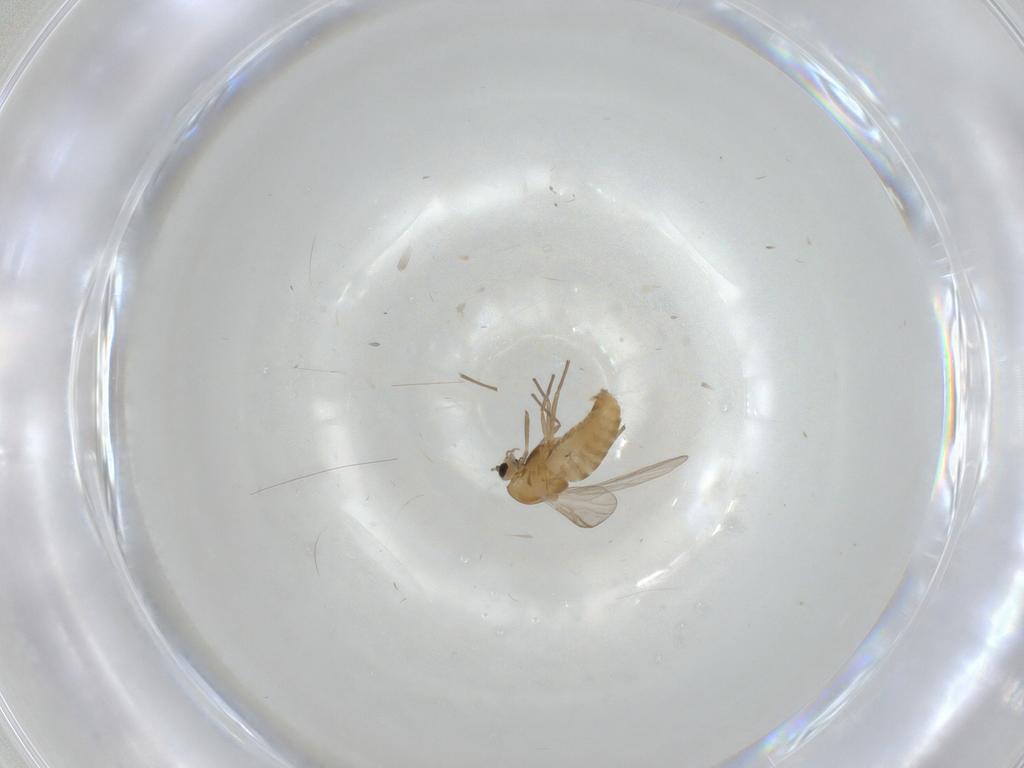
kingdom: Animalia
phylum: Arthropoda
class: Insecta
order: Diptera
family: Chironomidae
